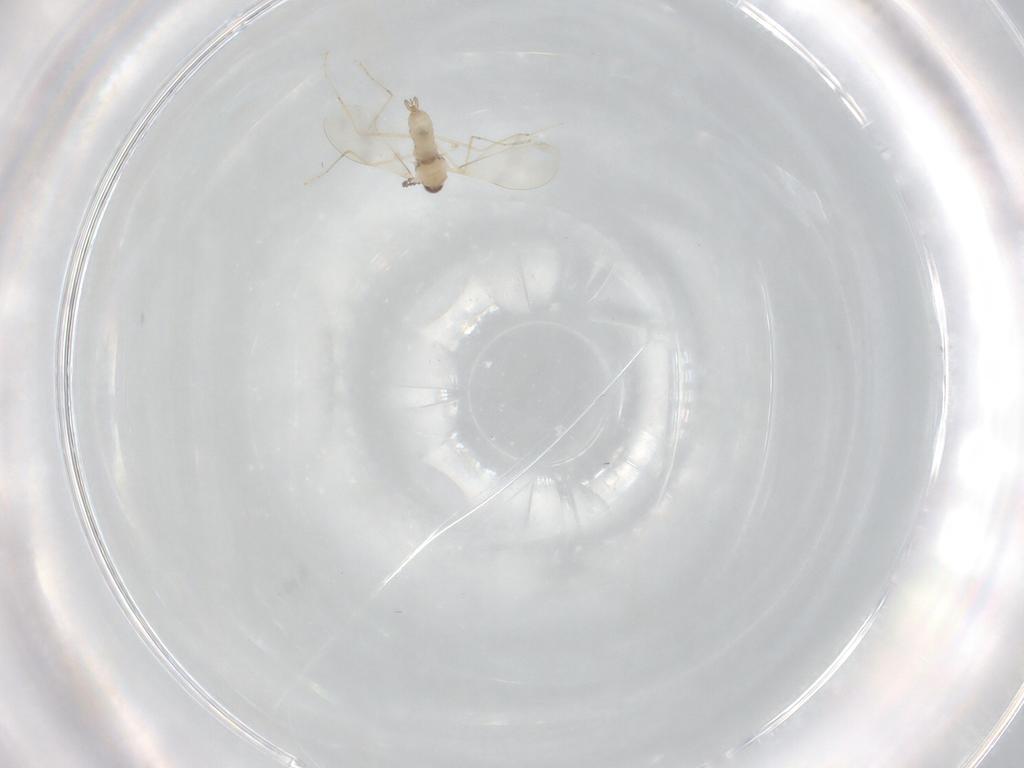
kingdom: Animalia
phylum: Arthropoda
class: Insecta
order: Diptera
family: Cecidomyiidae
